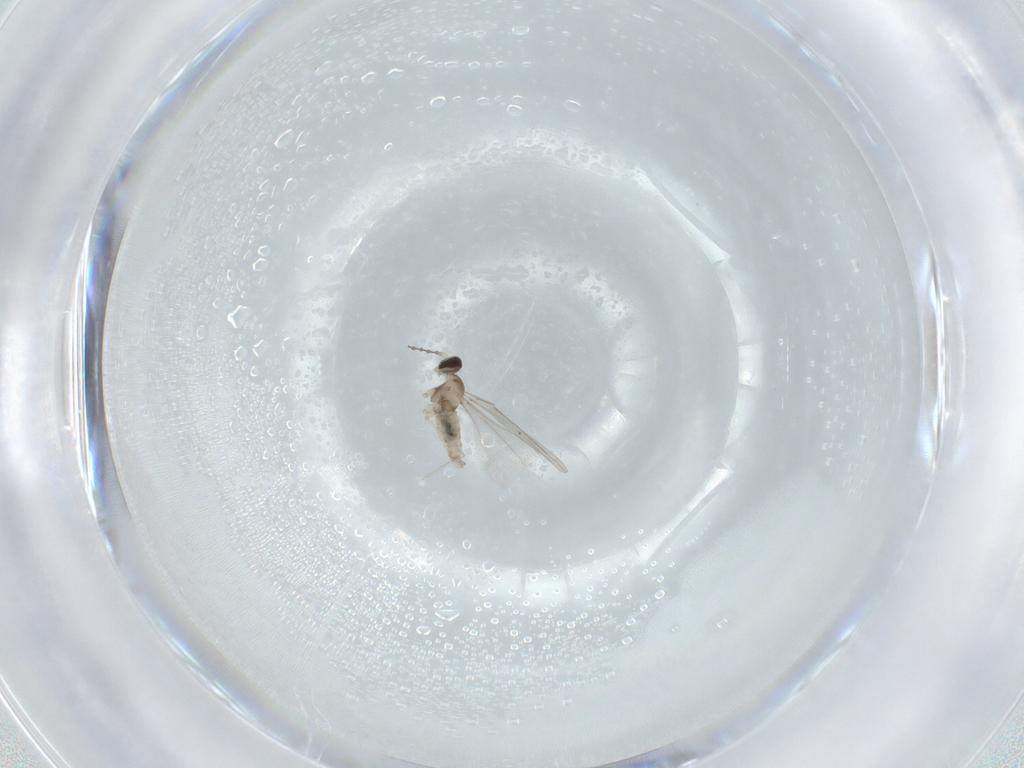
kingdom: Animalia
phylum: Arthropoda
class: Insecta
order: Diptera
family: Cecidomyiidae
